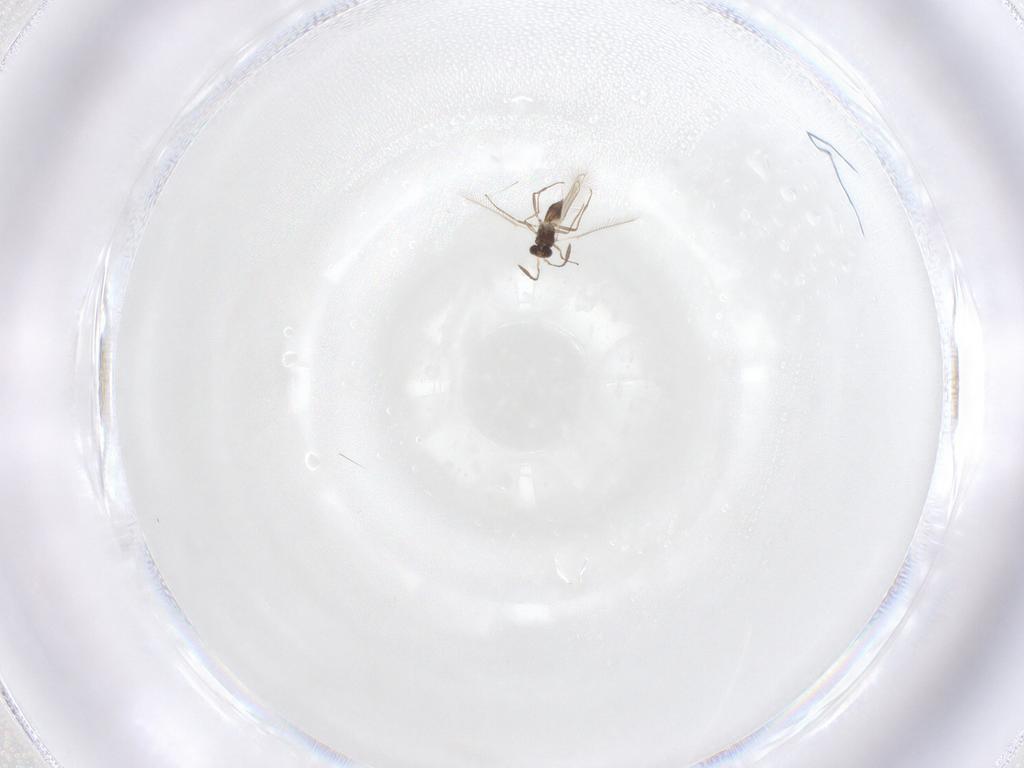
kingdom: Animalia
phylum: Arthropoda
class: Insecta
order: Hymenoptera
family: Mymaridae
